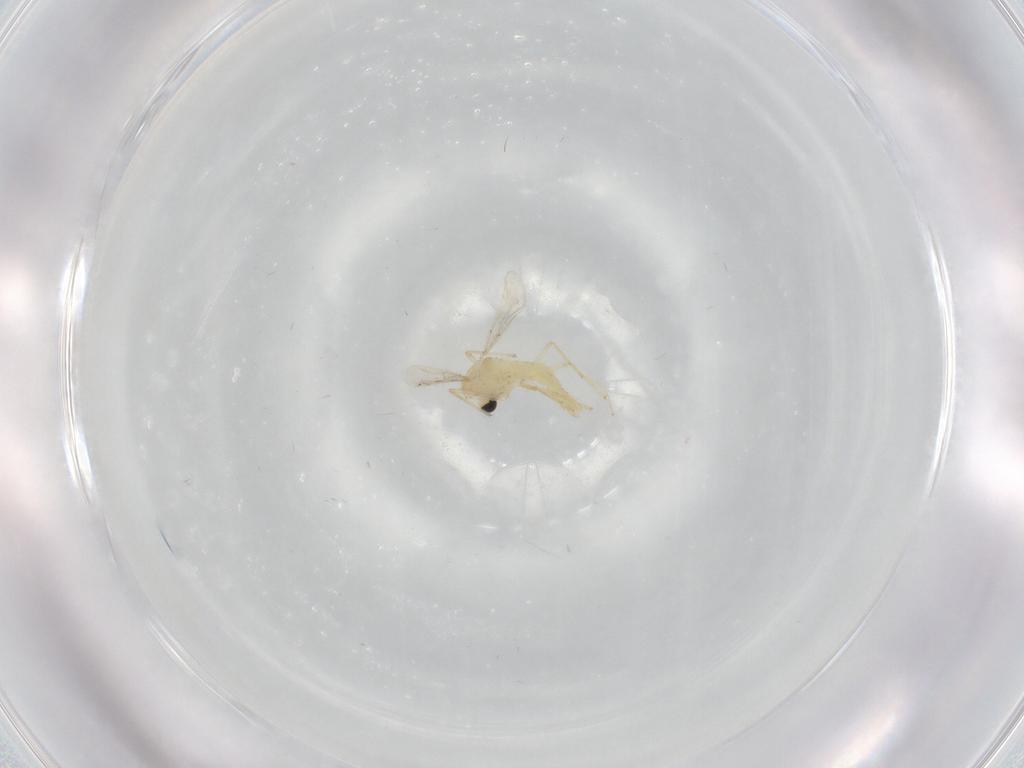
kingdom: Animalia
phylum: Arthropoda
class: Insecta
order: Diptera
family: Chironomidae
